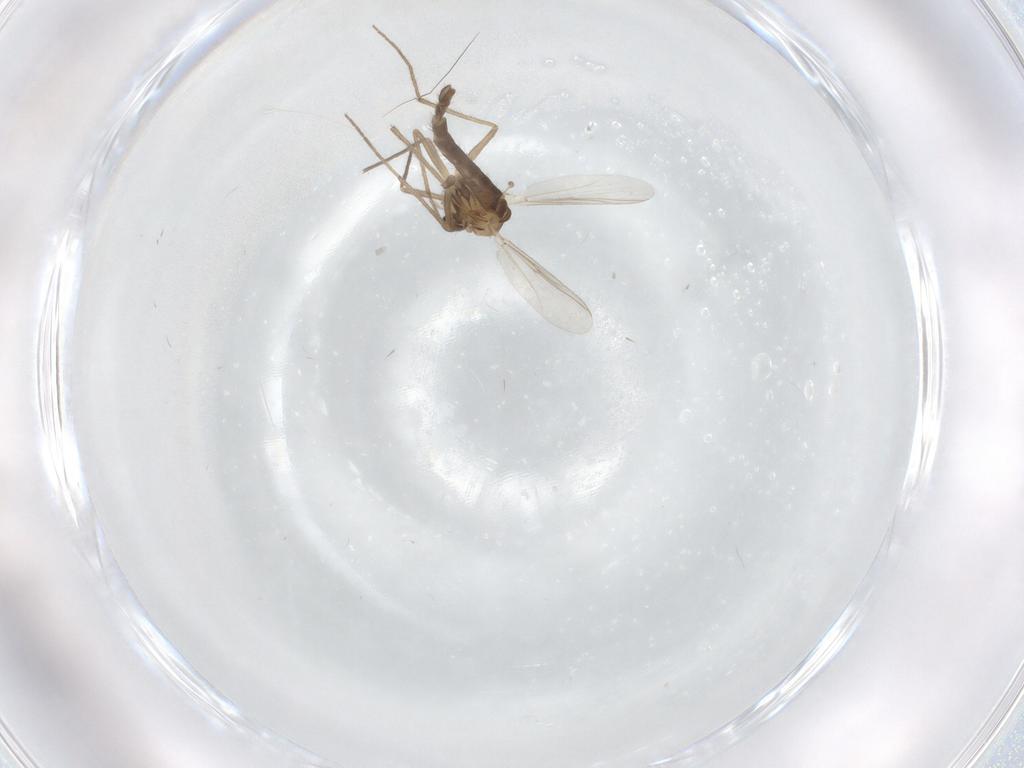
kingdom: Animalia
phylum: Arthropoda
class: Insecta
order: Diptera
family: Chironomidae
